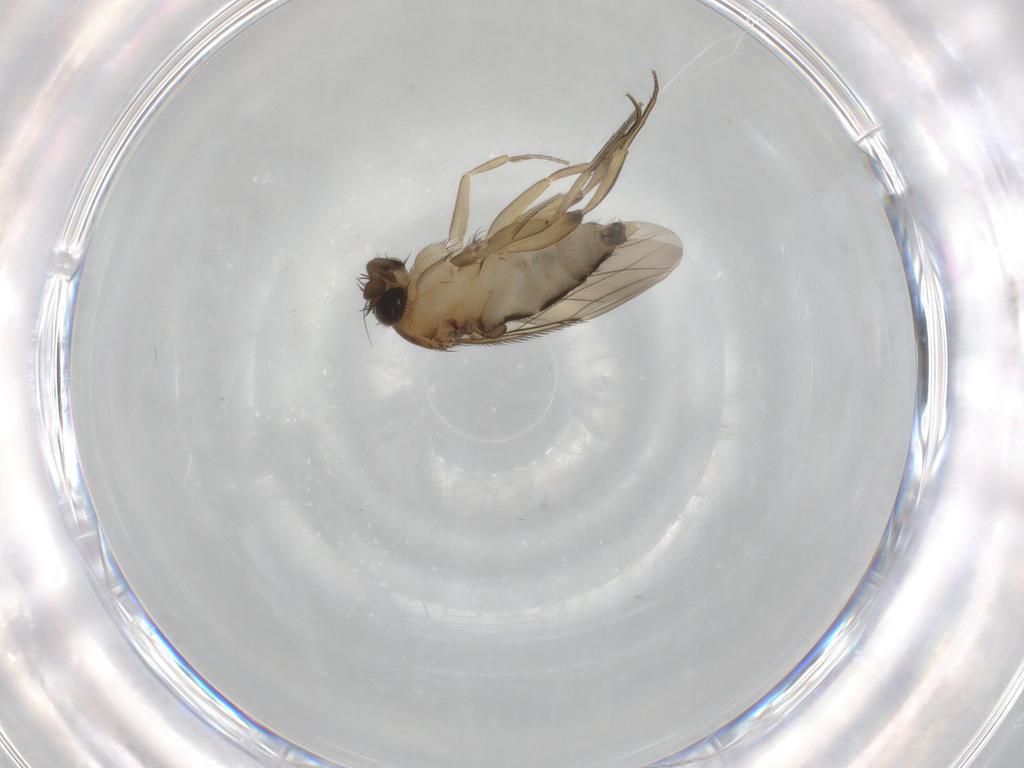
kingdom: Animalia
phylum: Arthropoda
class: Insecta
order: Diptera
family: Phoridae
